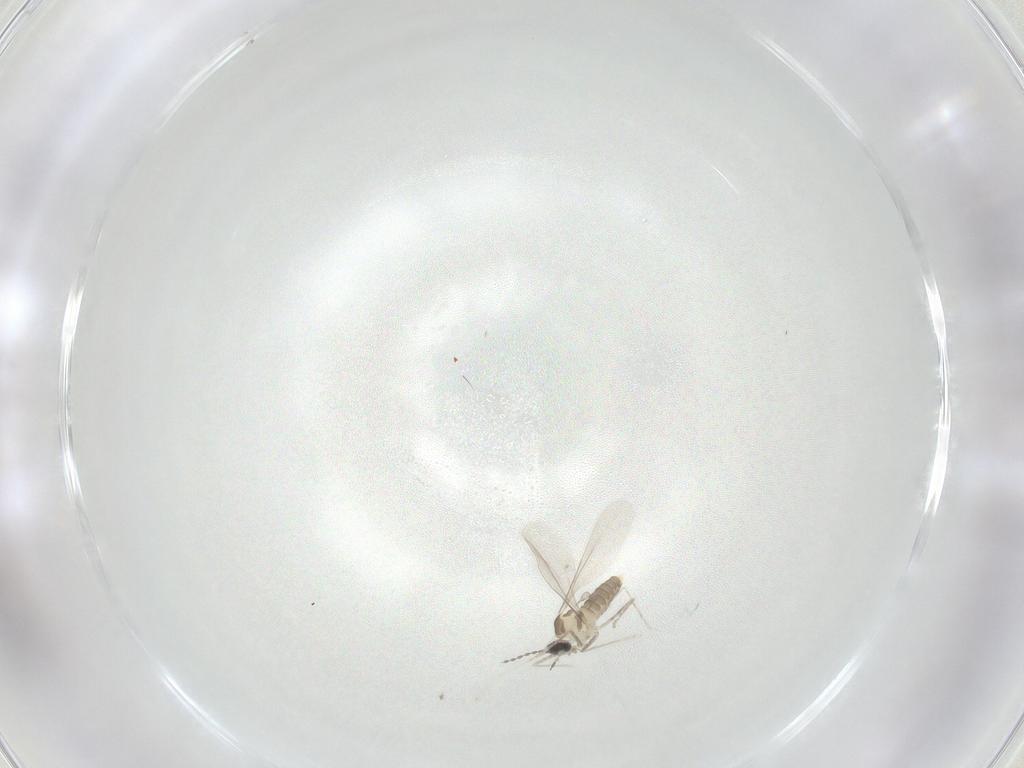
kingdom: Animalia
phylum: Arthropoda
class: Insecta
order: Diptera
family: Cecidomyiidae
